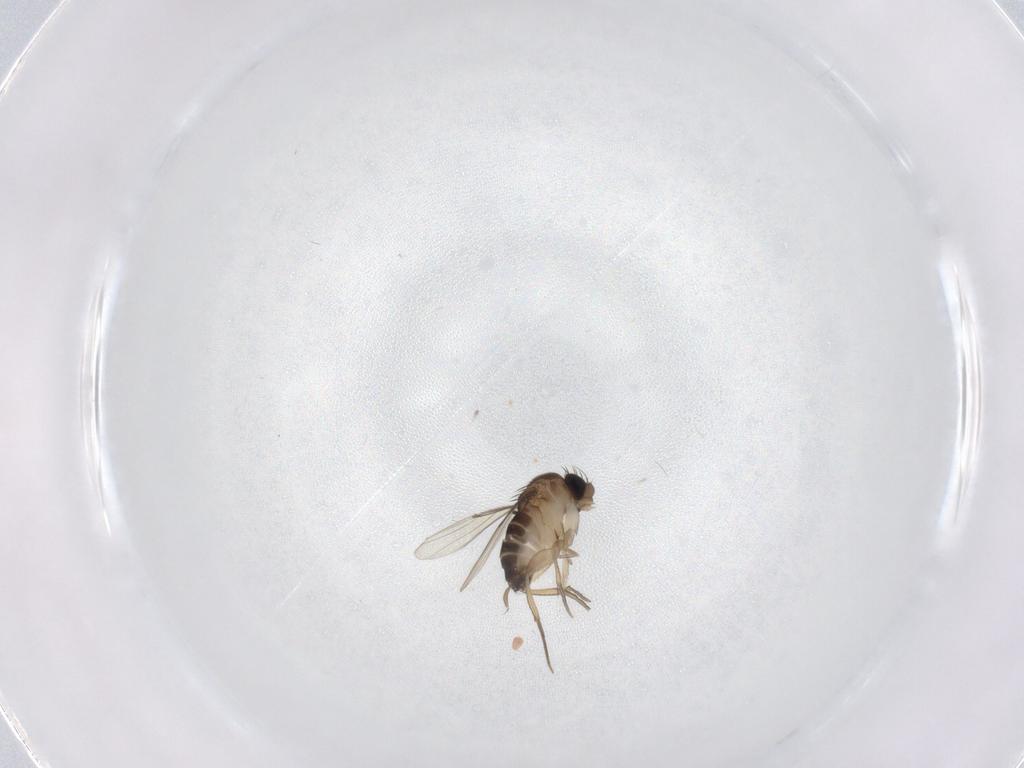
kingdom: Animalia
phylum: Arthropoda
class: Insecta
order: Diptera
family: Phoridae
